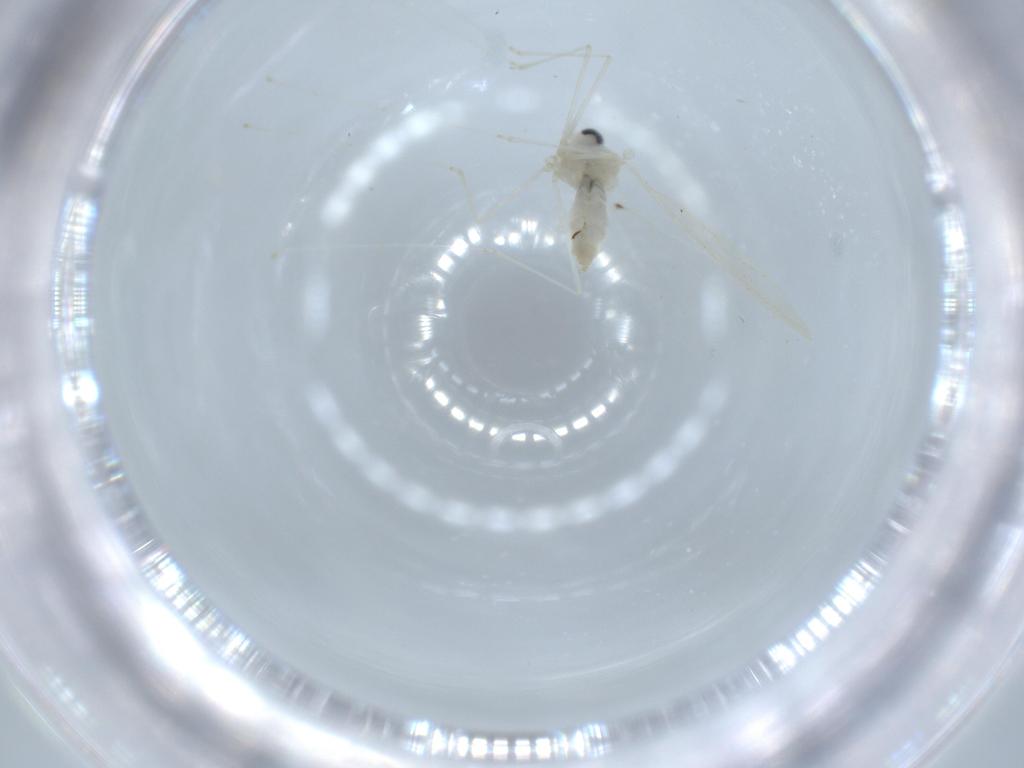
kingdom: Animalia
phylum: Arthropoda
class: Insecta
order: Diptera
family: Cecidomyiidae
